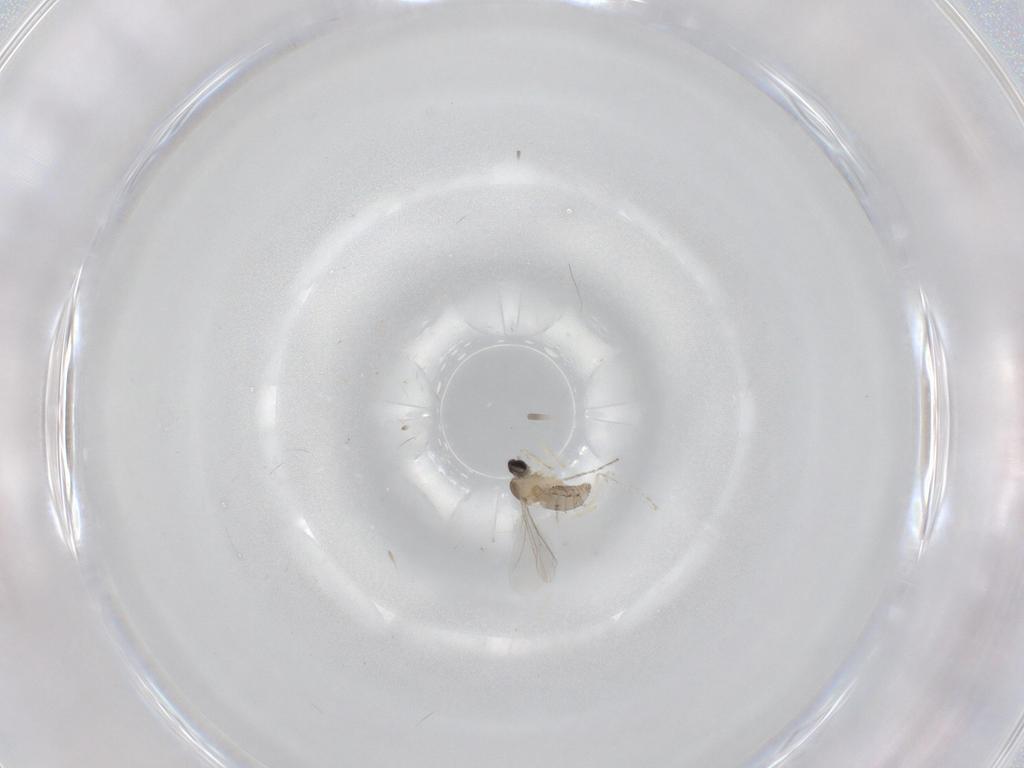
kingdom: Animalia
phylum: Arthropoda
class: Insecta
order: Diptera
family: Cecidomyiidae
